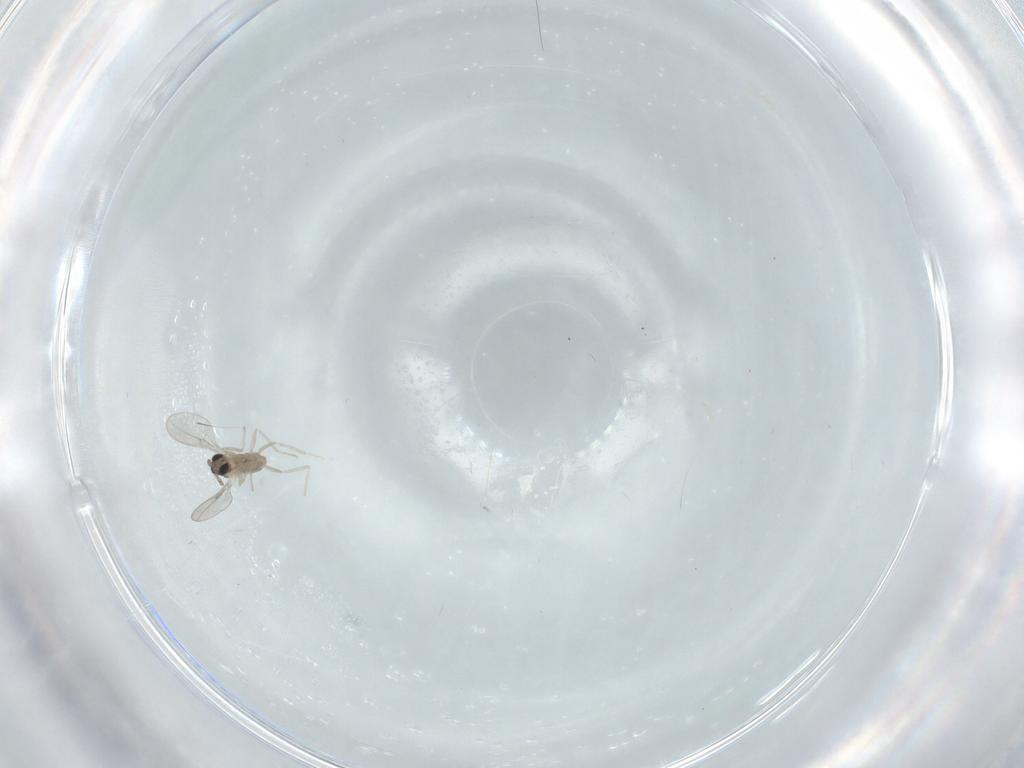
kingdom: Animalia
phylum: Arthropoda
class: Insecta
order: Diptera
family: Cecidomyiidae
